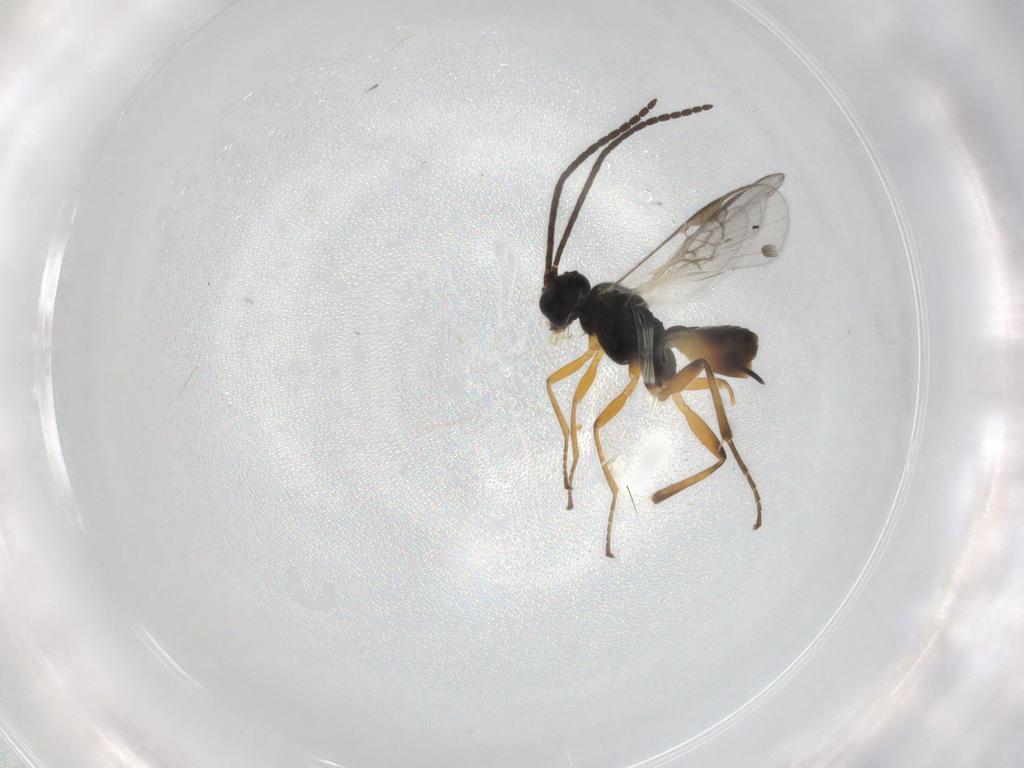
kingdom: Animalia
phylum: Arthropoda
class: Insecta
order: Hymenoptera
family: Braconidae
